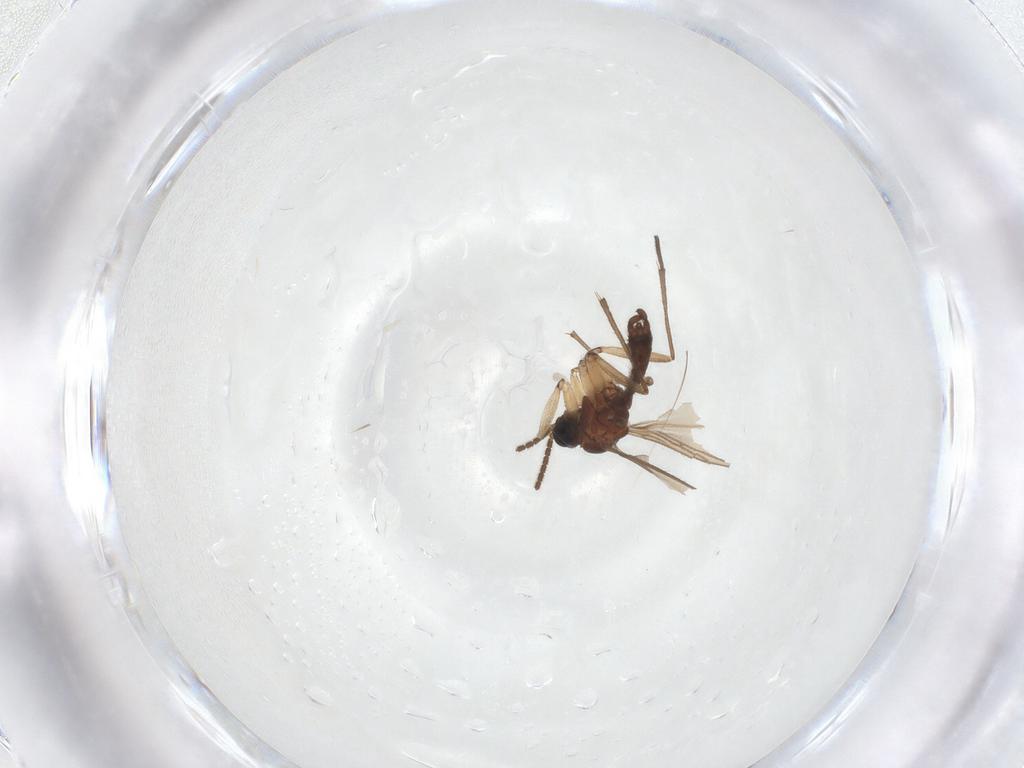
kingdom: Animalia
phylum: Arthropoda
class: Insecta
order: Diptera
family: Sciaridae
